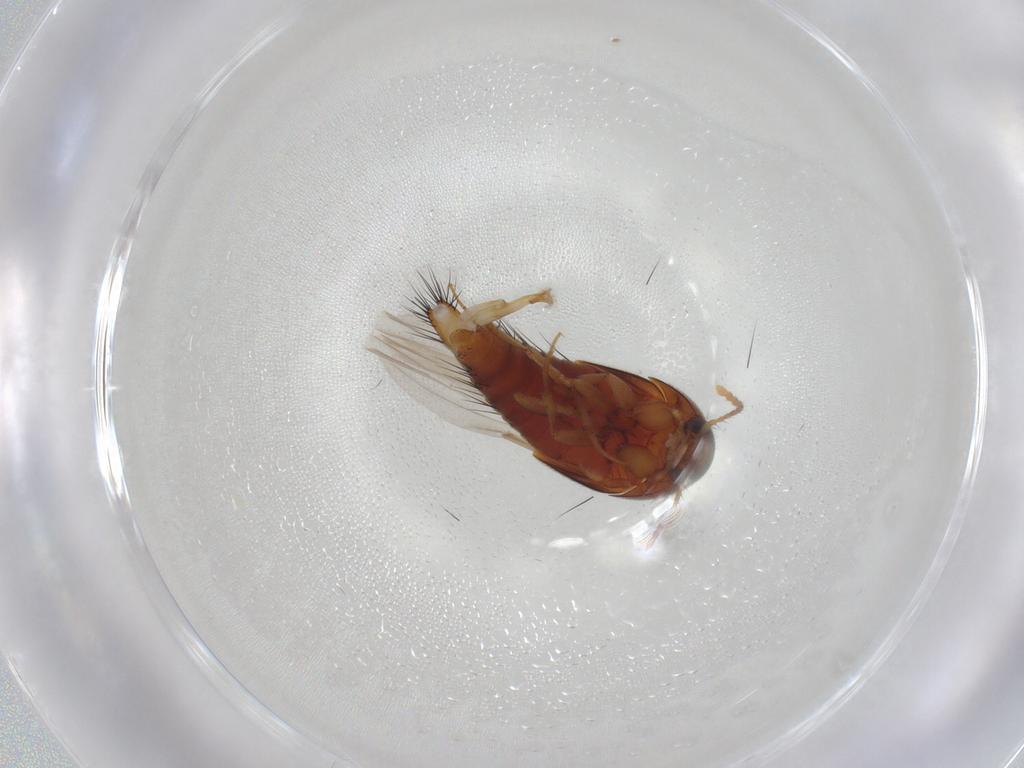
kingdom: Animalia
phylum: Arthropoda
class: Insecta
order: Coleoptera
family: Staphylinidae
